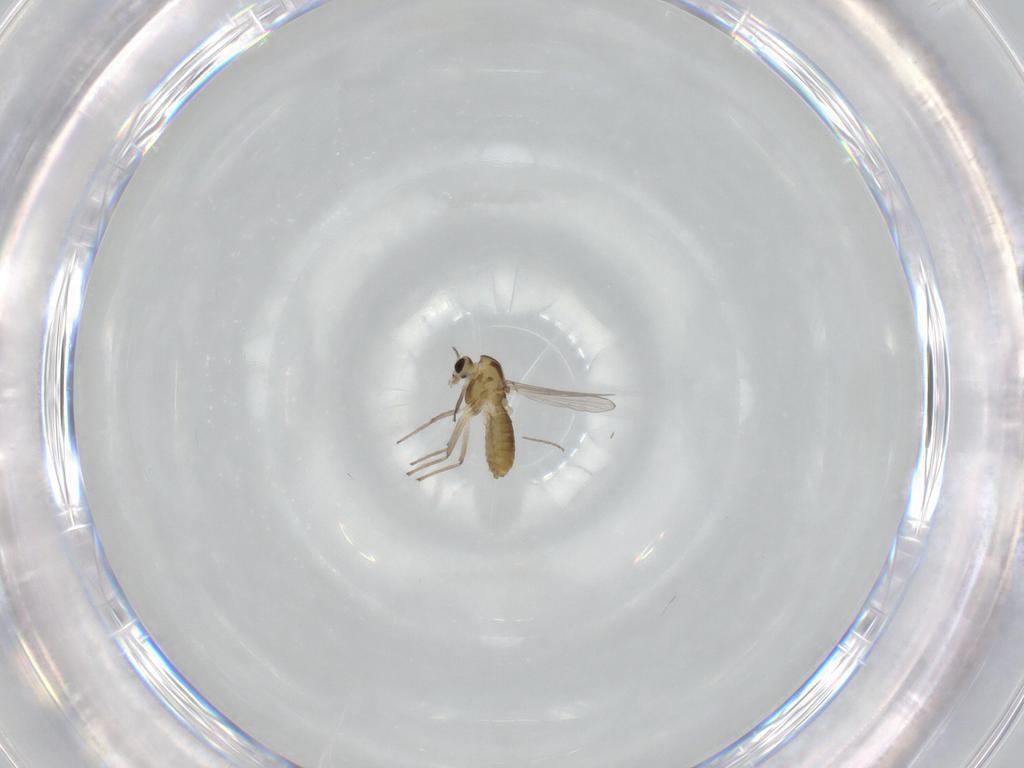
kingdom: Animalia
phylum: Arthropoda
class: Insecta
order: Diptera
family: Chironomidae
